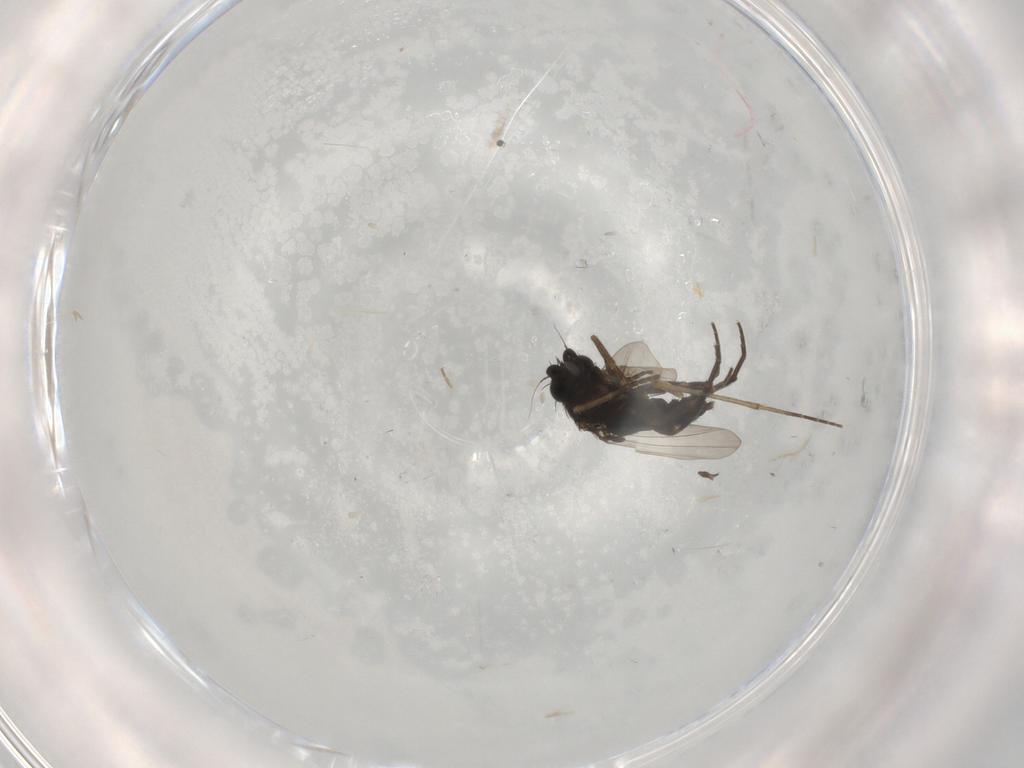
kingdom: Animalia
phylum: Arthropoda
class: Insecta
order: Diptera
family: Phoridae
